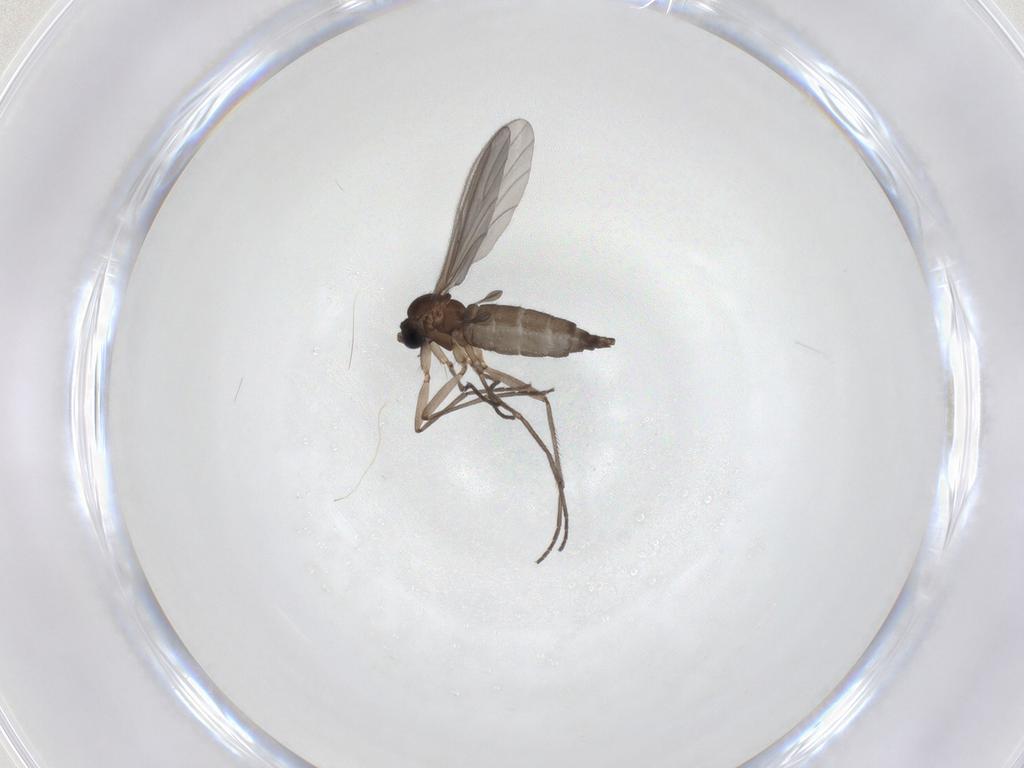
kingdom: Animalia
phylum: Arthropoda
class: Insecta
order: Diptera
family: Sciaridae
